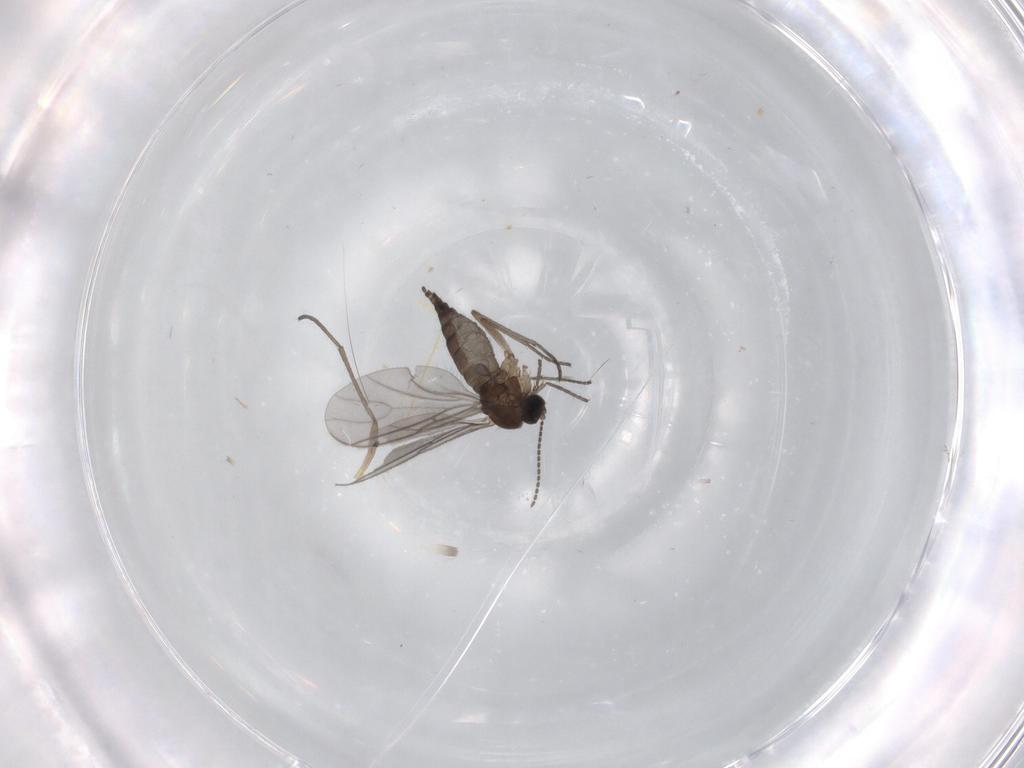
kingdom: Animalia
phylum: Arthropoda
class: Insecta
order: Diptera
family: Sciaridae
